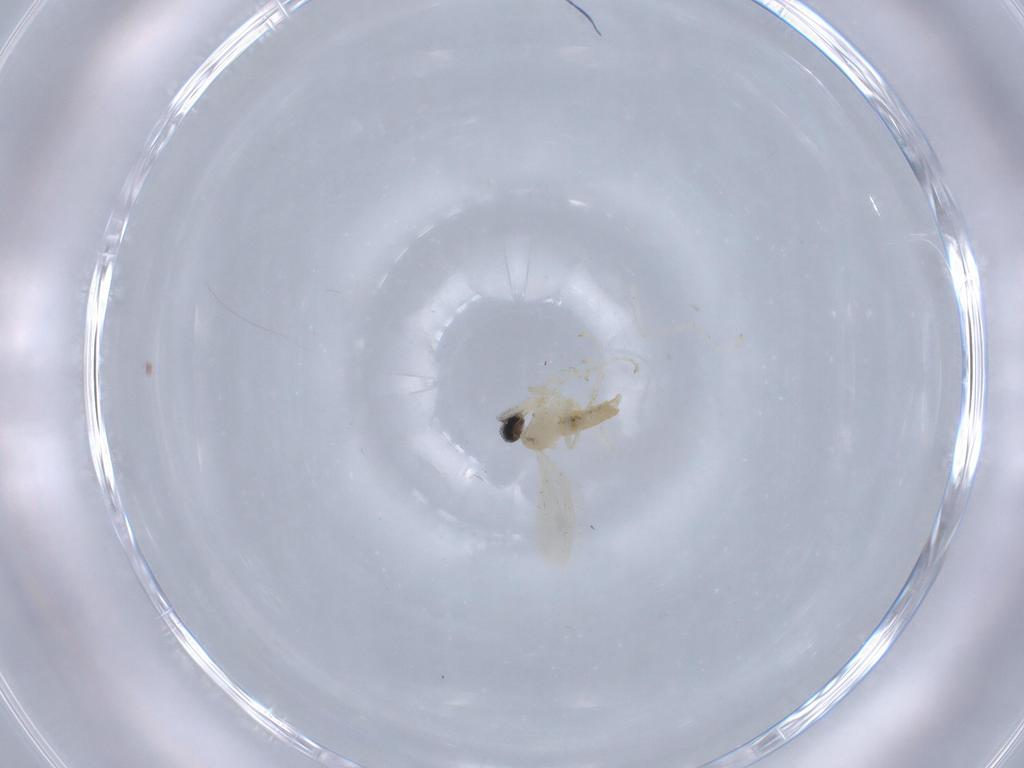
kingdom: Animalia
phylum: Arthropoda
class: Insecta
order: Diptera
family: Cecidomyiidae
